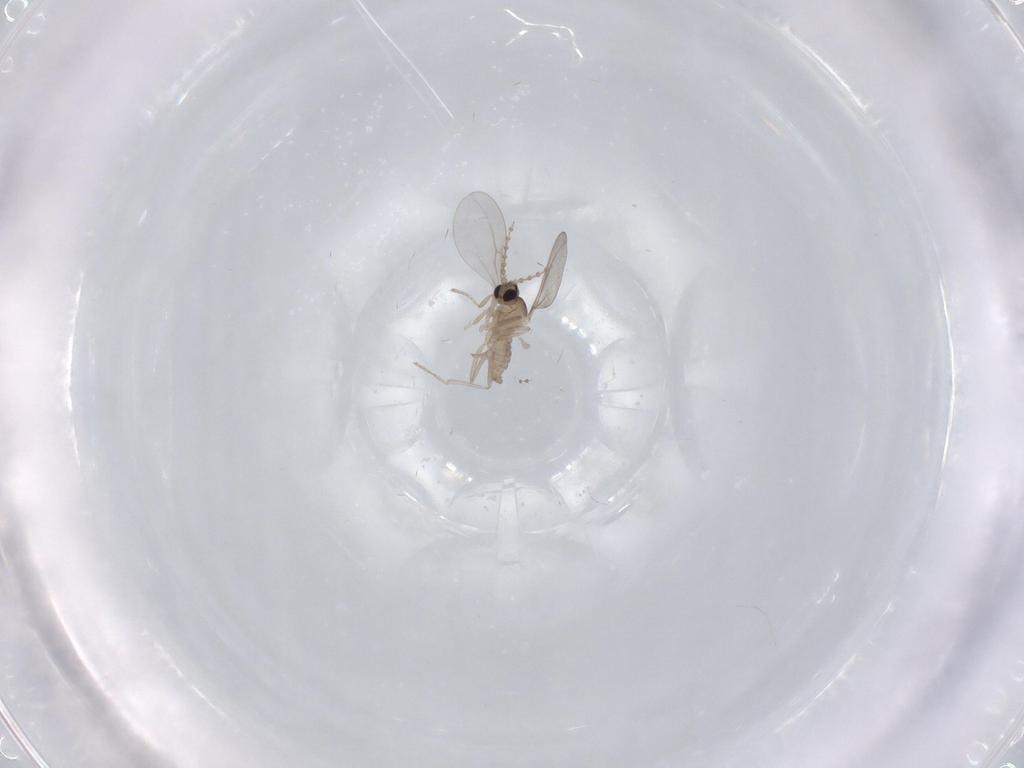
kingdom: Animalia
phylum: Arthropoda
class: Insecta
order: Diptera
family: Cecidomyiidae
